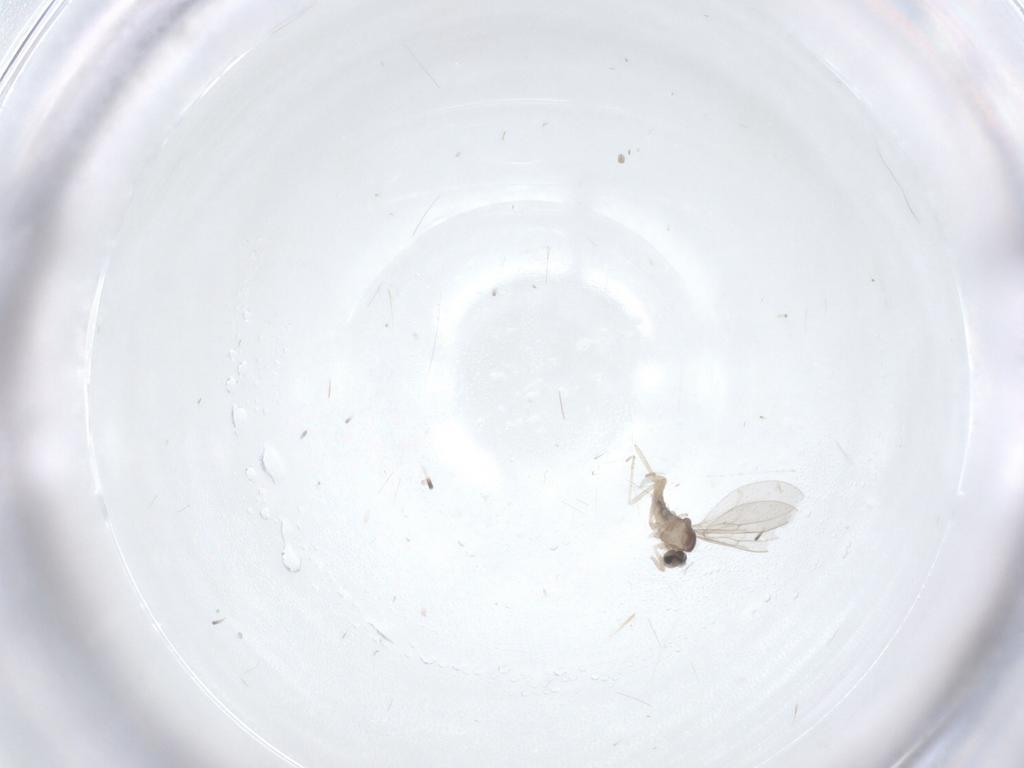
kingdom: Animalia
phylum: Arthropoda
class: Insecta
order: Diptera
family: Cecidomyiidae
